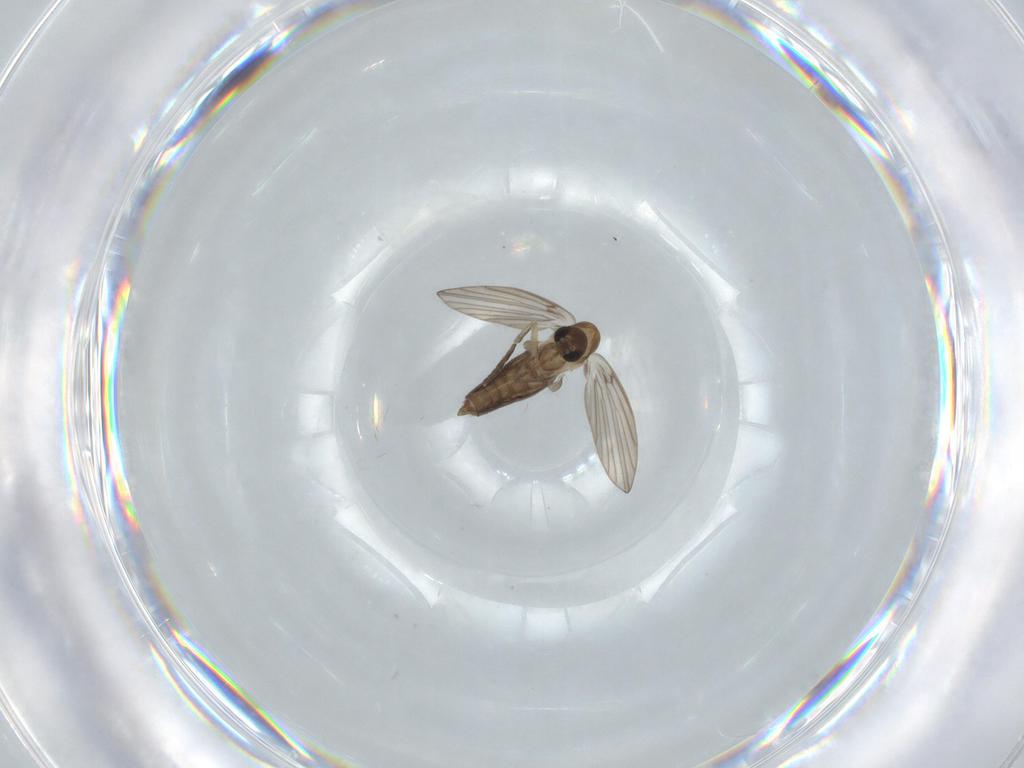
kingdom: Animalia
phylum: Arthropoda
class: Insecta
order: Diptera
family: Psychodidae
